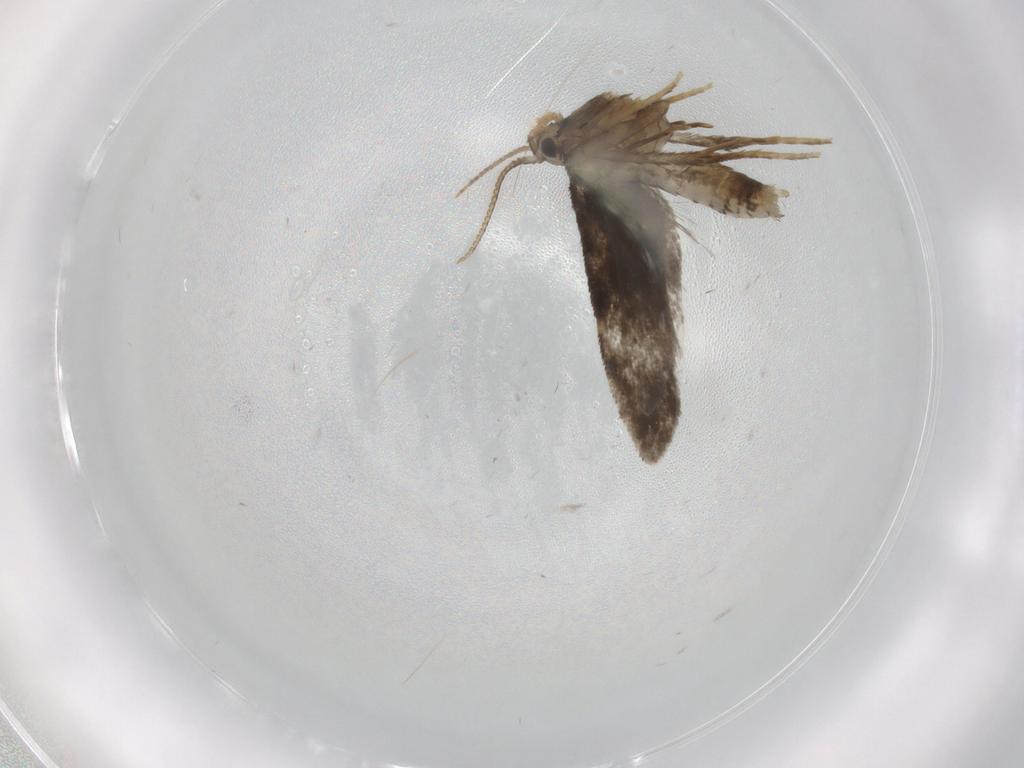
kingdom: Animalia
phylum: Arthropoda
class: Insecta
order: Lepidoptera
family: Psychidae
